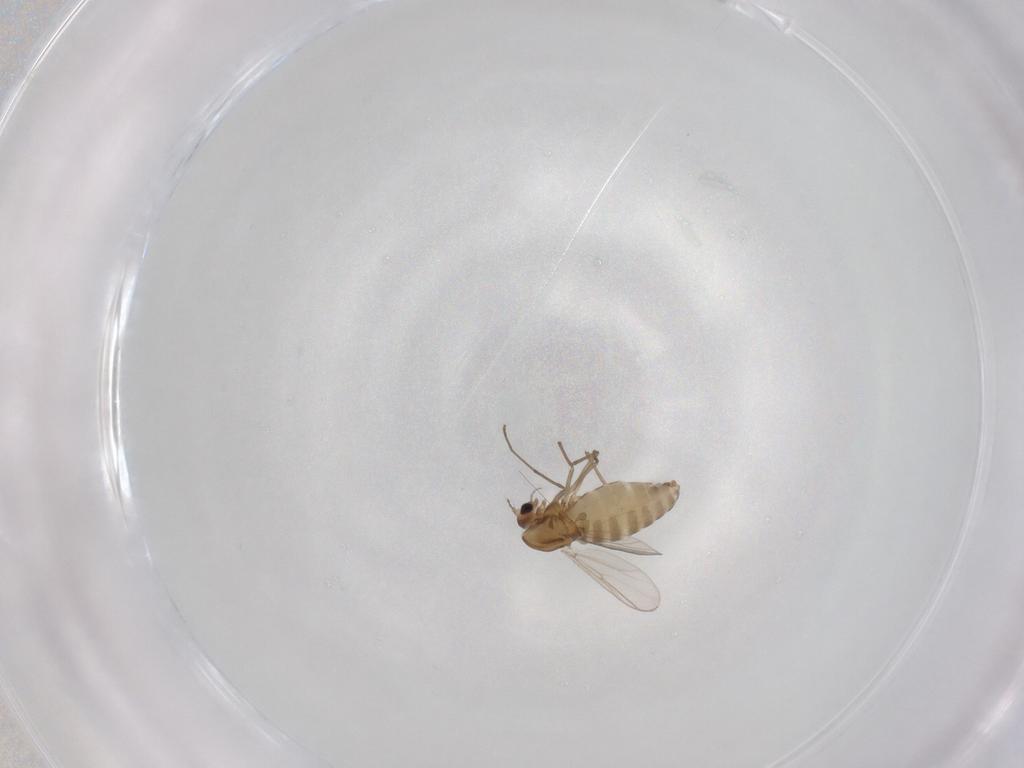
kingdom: Animalia
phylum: Arthropoda
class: Insecta
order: Diptera
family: Chironomidae
